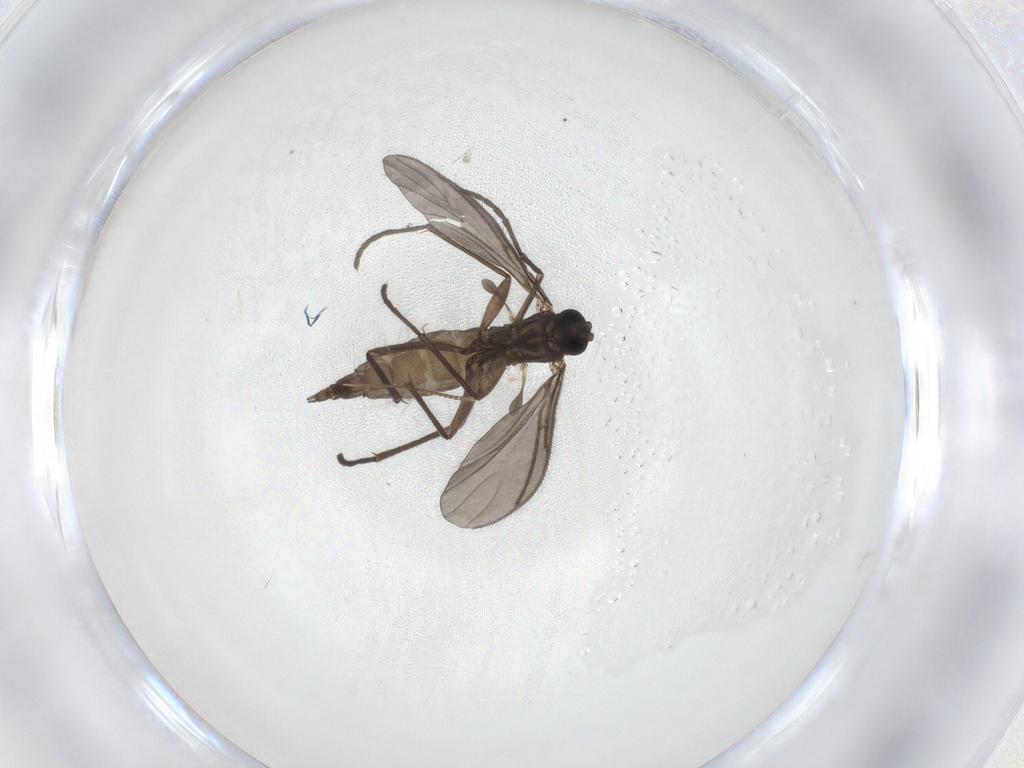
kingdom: Animalia
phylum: Arthropoda
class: Insecta
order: Diptera
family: Sciaridae
